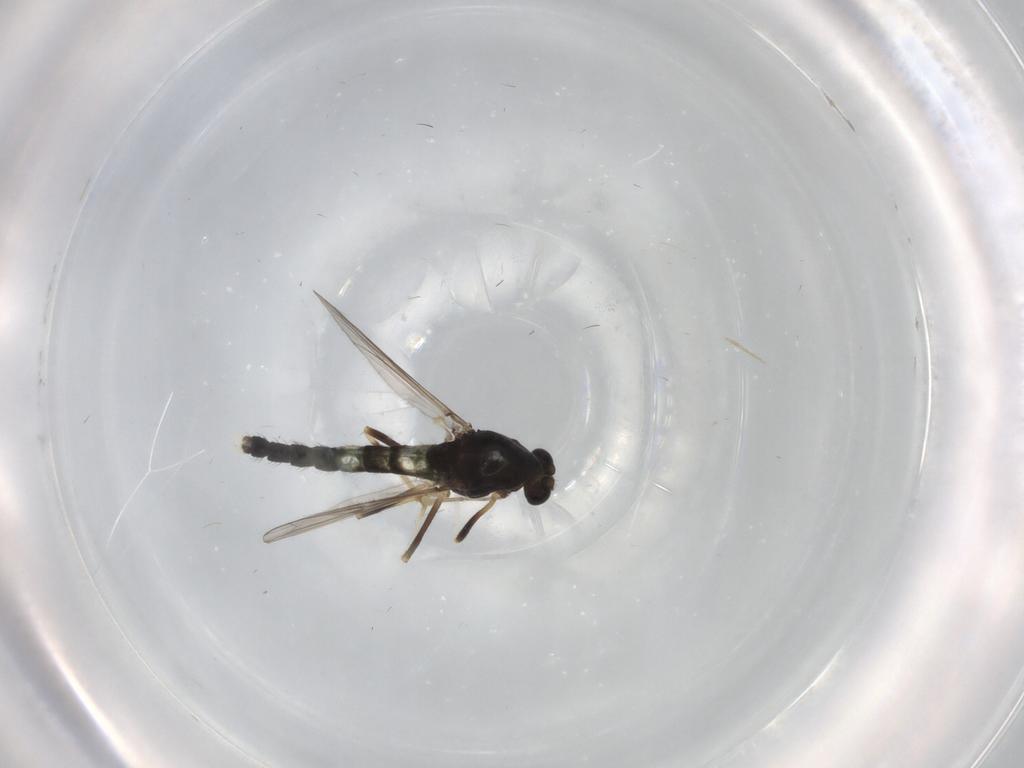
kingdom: Animalia
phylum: Arthropoda
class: Insecta
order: Diptera
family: Chironomidae
